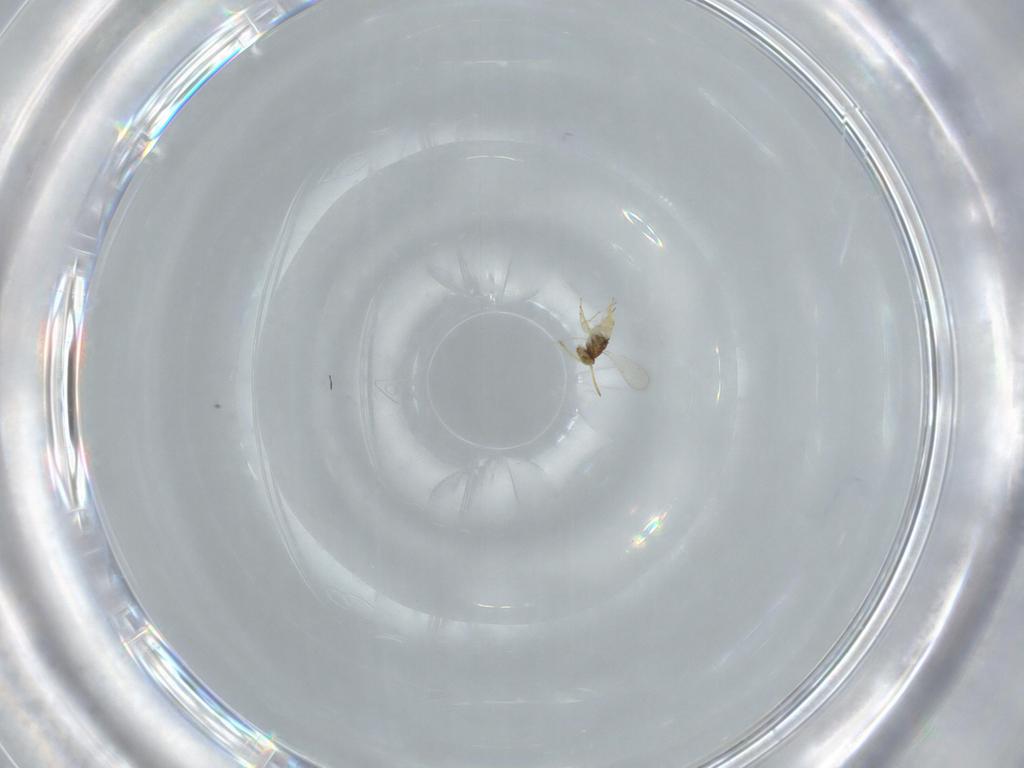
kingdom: Animalia
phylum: Arthropoda
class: Insecta
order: Hymenoptera
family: Aphelinidae
